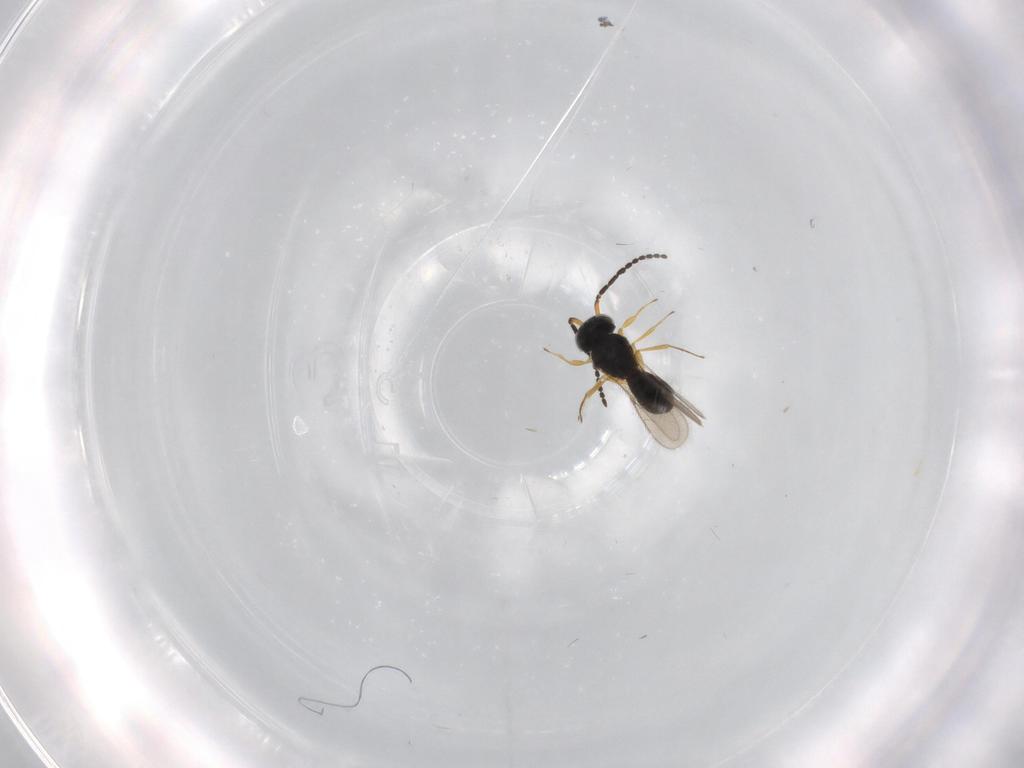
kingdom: Animalia
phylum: Arthropoda
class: Insecta
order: Hymenoptera
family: Scelionidae
